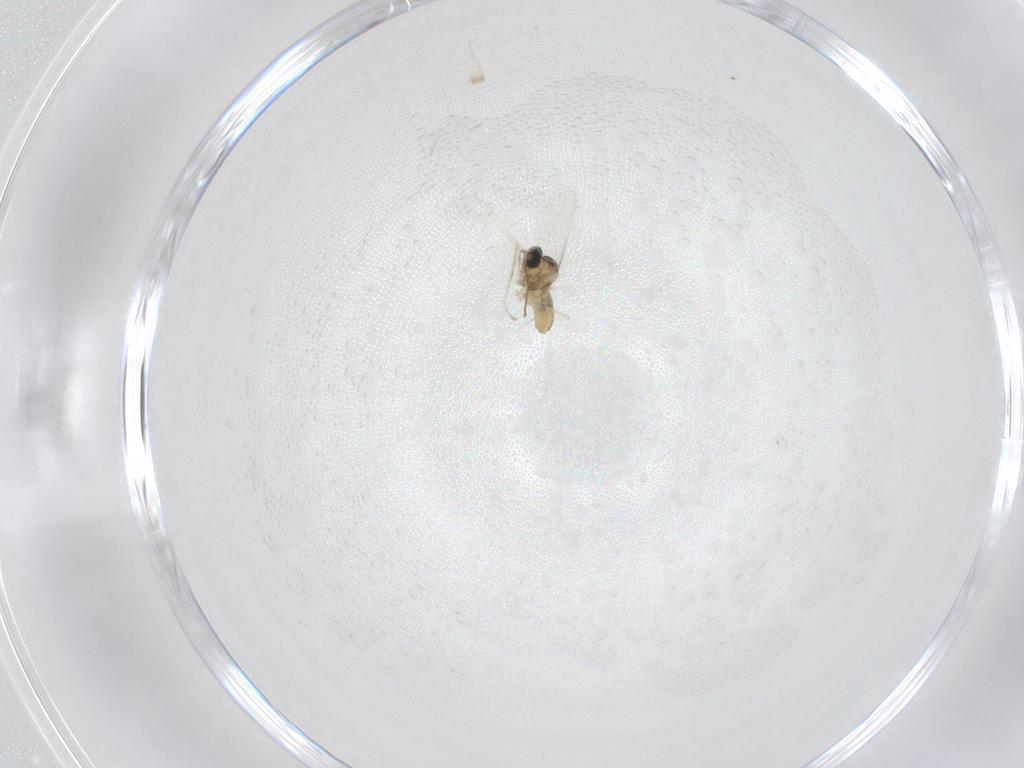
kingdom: Animalia
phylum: Arthropoda
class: Insecta
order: Diptera
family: Cecidomyiidae
